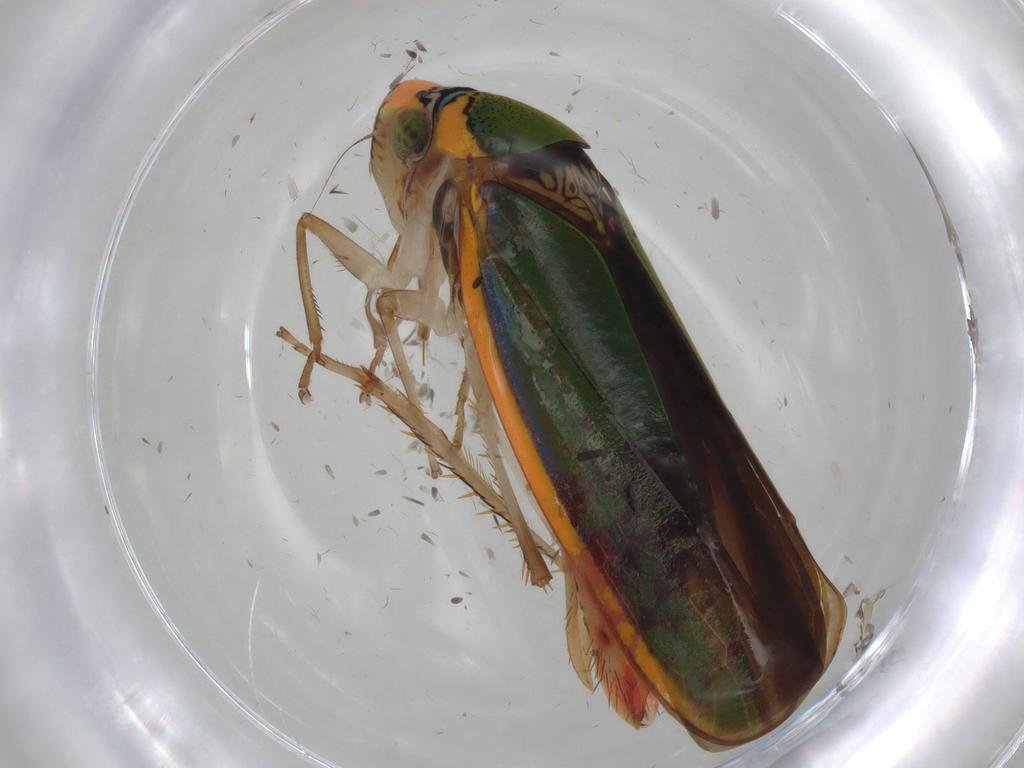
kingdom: Animalia
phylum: Arthropoda
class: Insecta
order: Hemiptera
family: Cicadellidae
